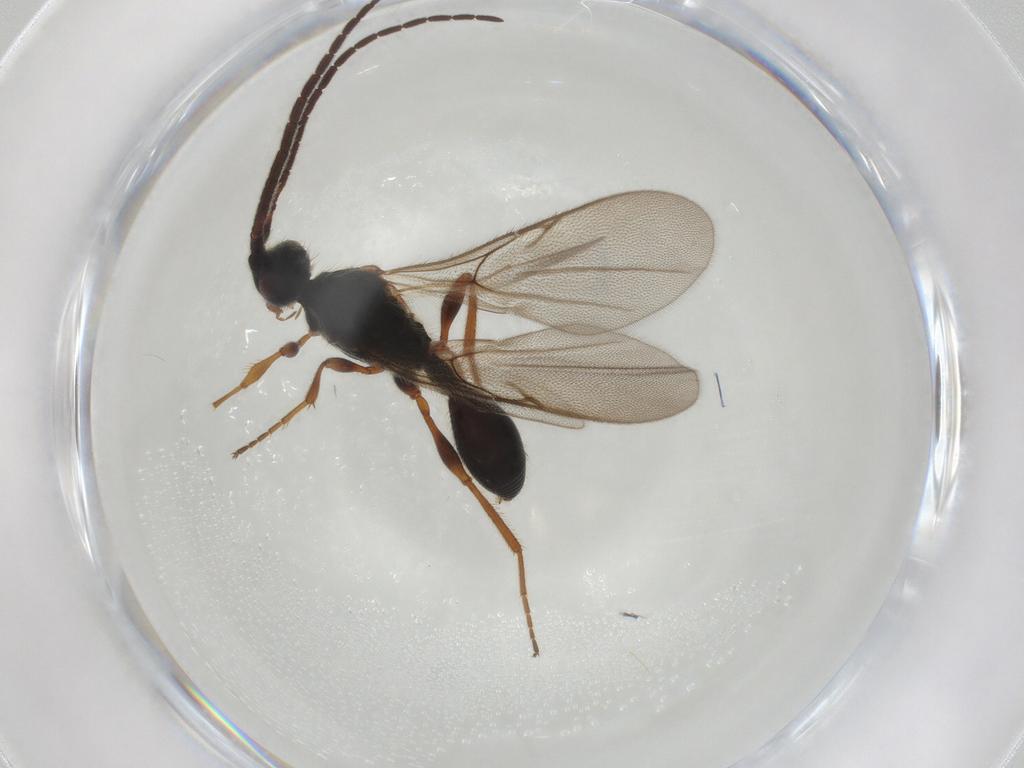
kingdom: Animalia
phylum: Arthropoda
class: Insecta
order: Hymenoptera
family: Diapriidae
